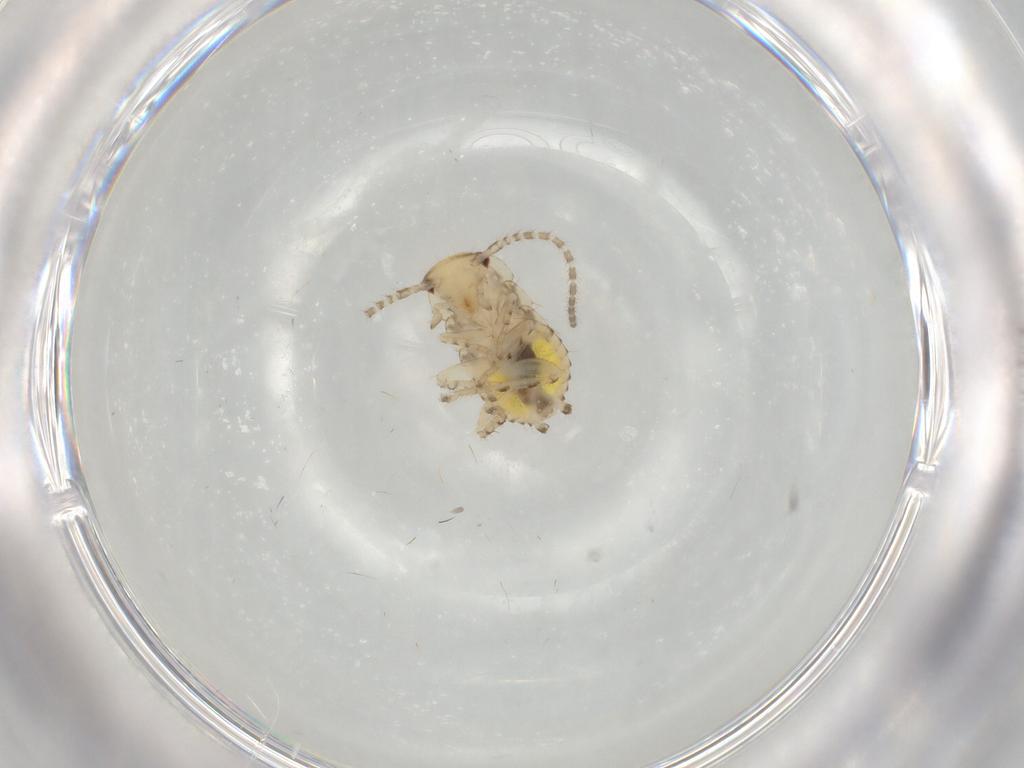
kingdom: Animalia
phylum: Arthropoda
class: Insecta
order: Blattodea
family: Ectobiidae
